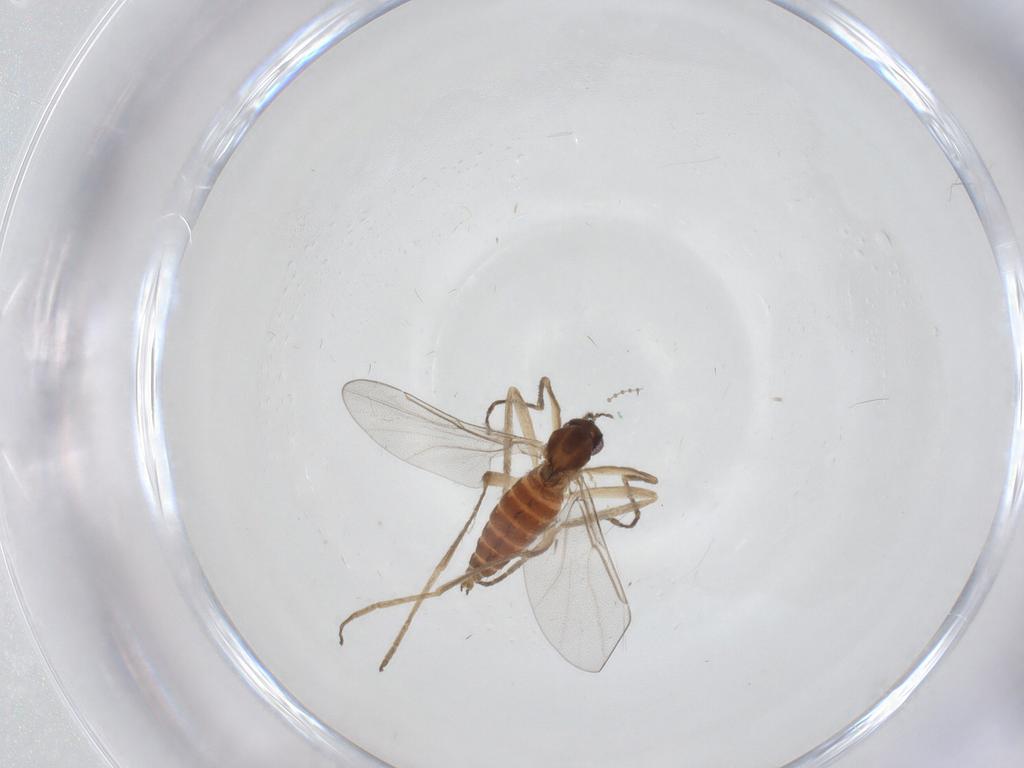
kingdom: Animalia
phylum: Arthropoda
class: Insecta
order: Diptera
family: Cecidomyiidae
